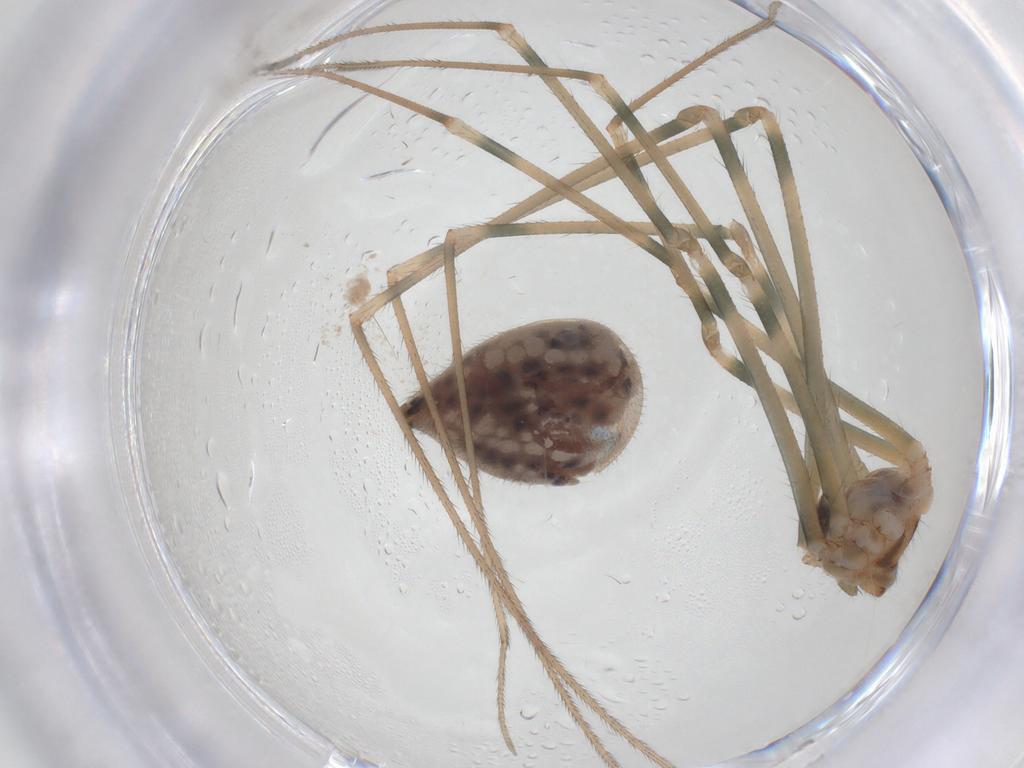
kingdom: Animalia
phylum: Arthropoda
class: Arachnida
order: Araneae
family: Pholcidae
